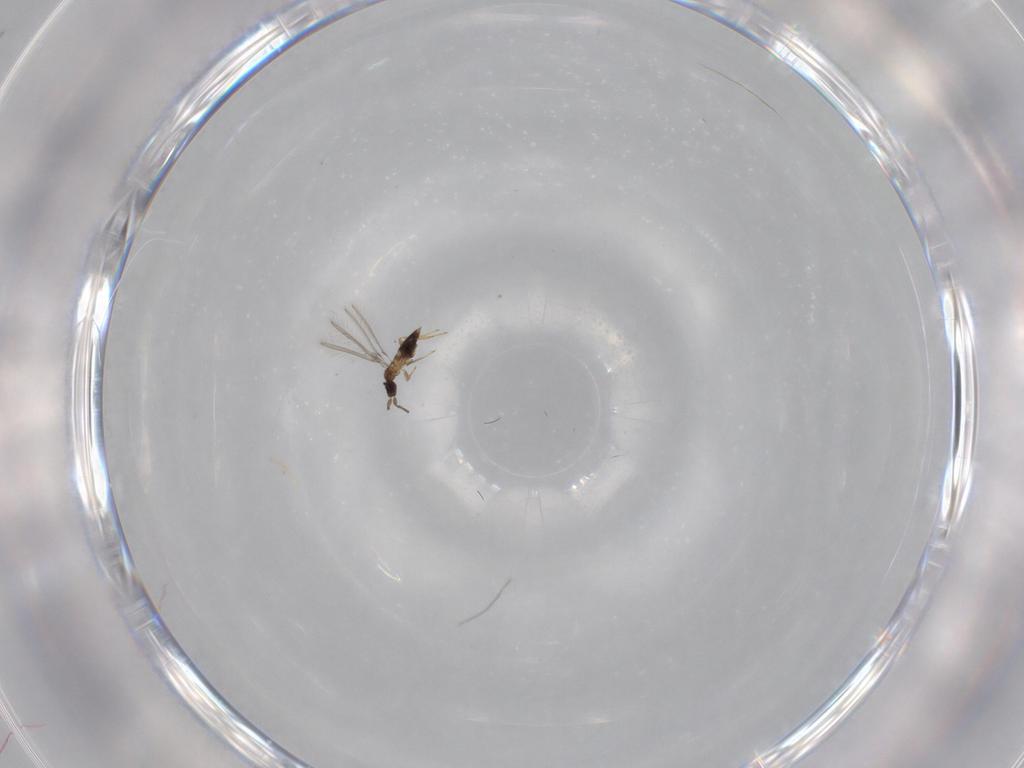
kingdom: Animalia
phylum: Arthropoda
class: Insecta
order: Hymenoptera
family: Mymaridae
